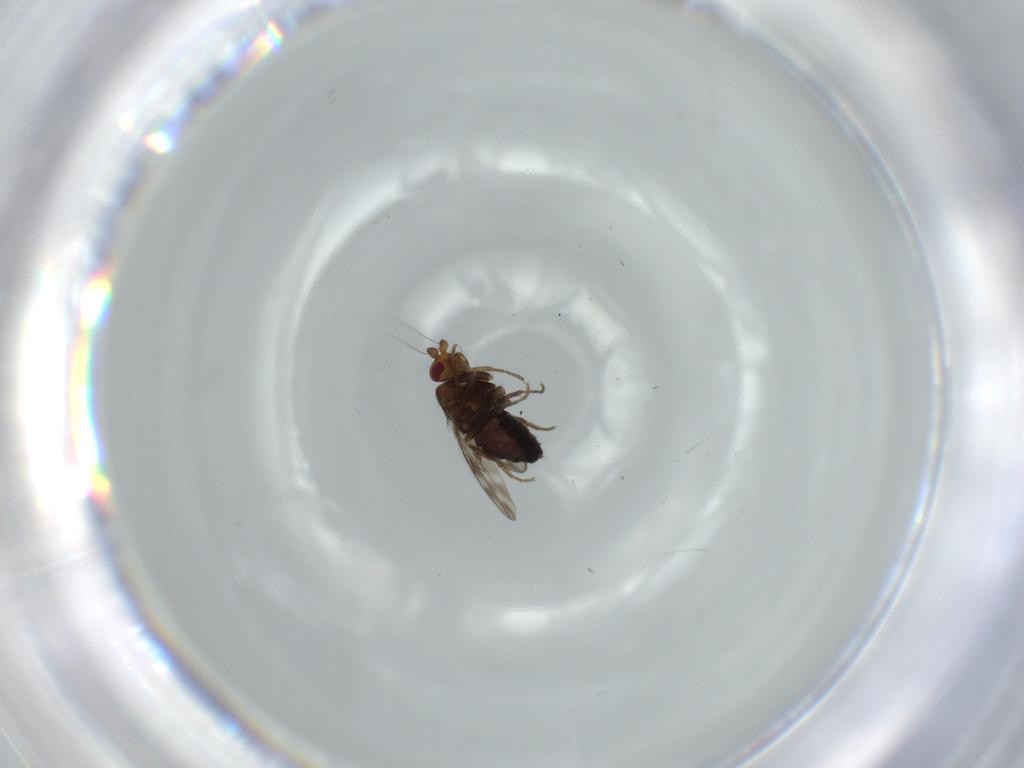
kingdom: Animalia
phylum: Arthropoda
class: Insecta
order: Diptera
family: Sphaeroceridae
